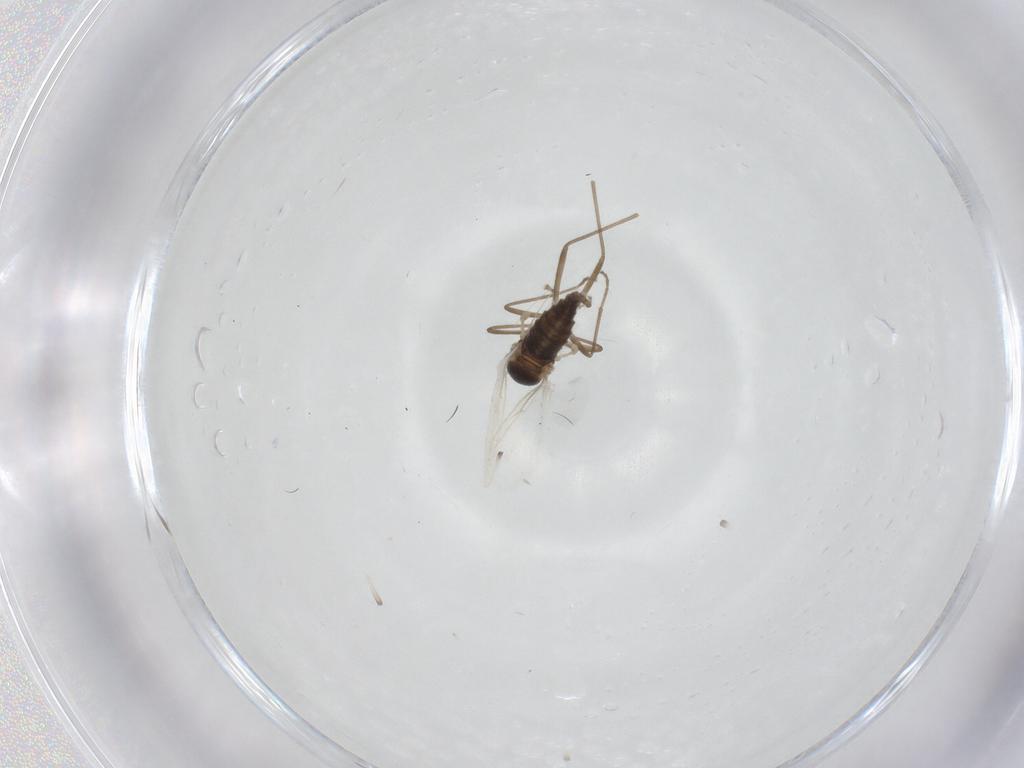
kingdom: Animalia
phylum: Arthropoda
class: Insecta
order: Diptera
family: Cecidomyiidae
